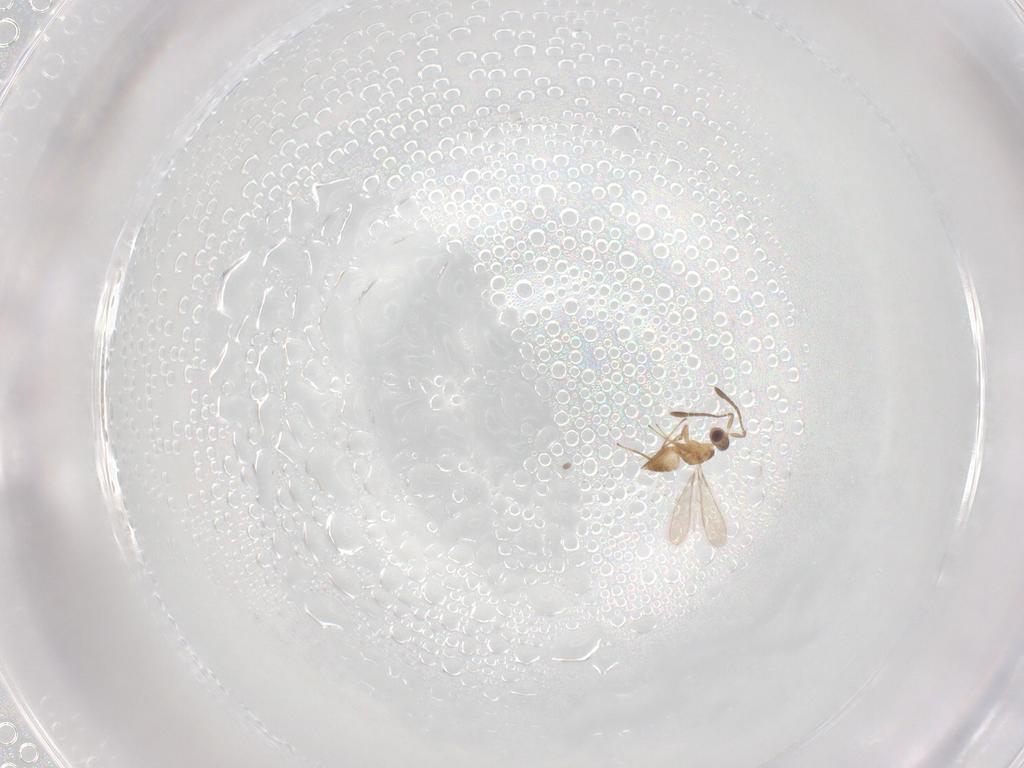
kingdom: Animalia
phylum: Arthropoda
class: Insecta
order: Hymenoptera
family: Mymaridae
